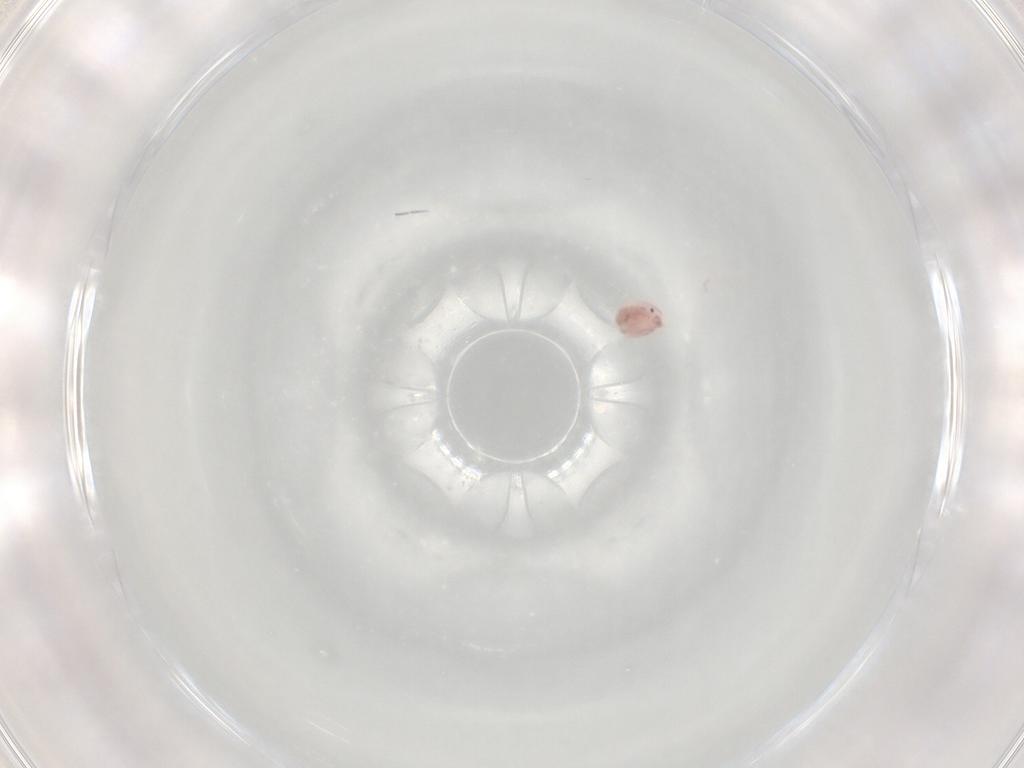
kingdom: Animalia
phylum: Arthropoda
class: Arachnida
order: Trombidiformes
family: Pionidae
